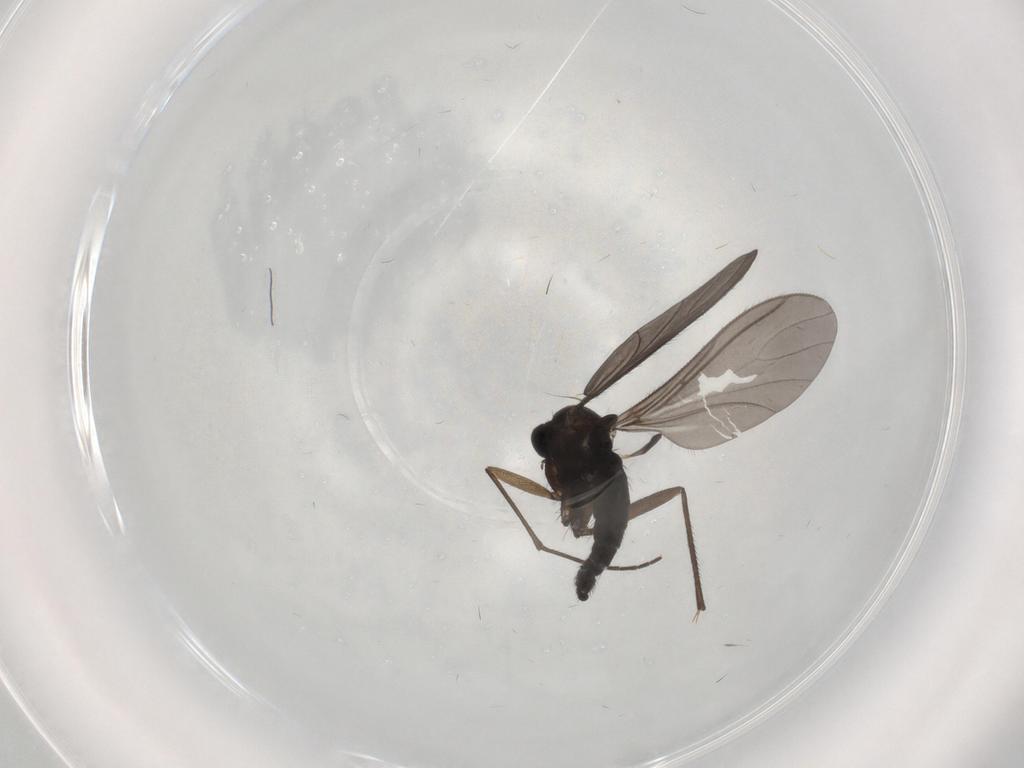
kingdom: Animalia
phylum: Arthropoda
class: Insecta
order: Diptera
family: Sciaridae
